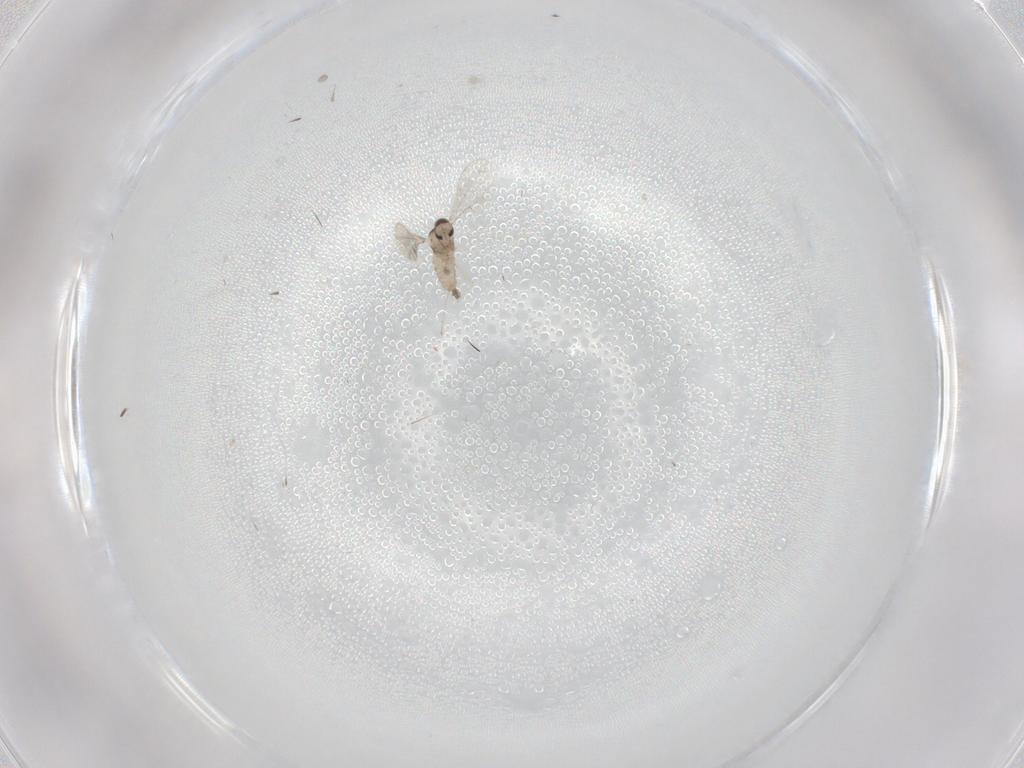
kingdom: Animalia
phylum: Arthropoda
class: Insecta
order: Diptera
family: Cecidomyiidae
